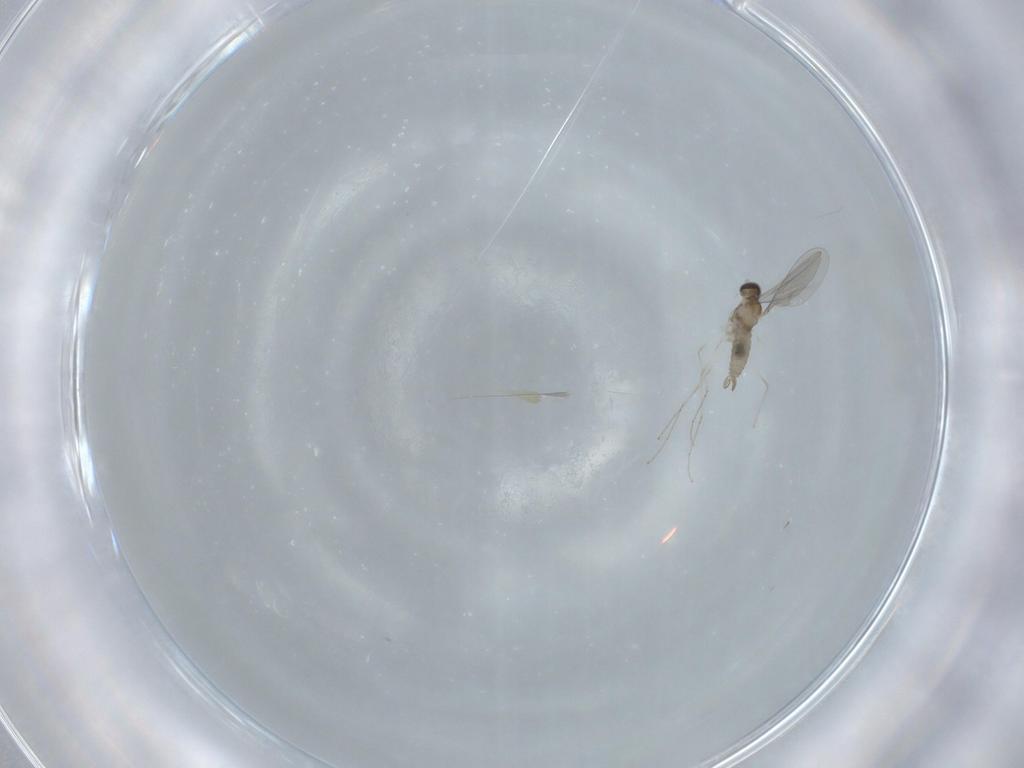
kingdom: Animalia
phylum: Arthropoda
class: Insecta
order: Diptera
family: Cecidomyiidae
